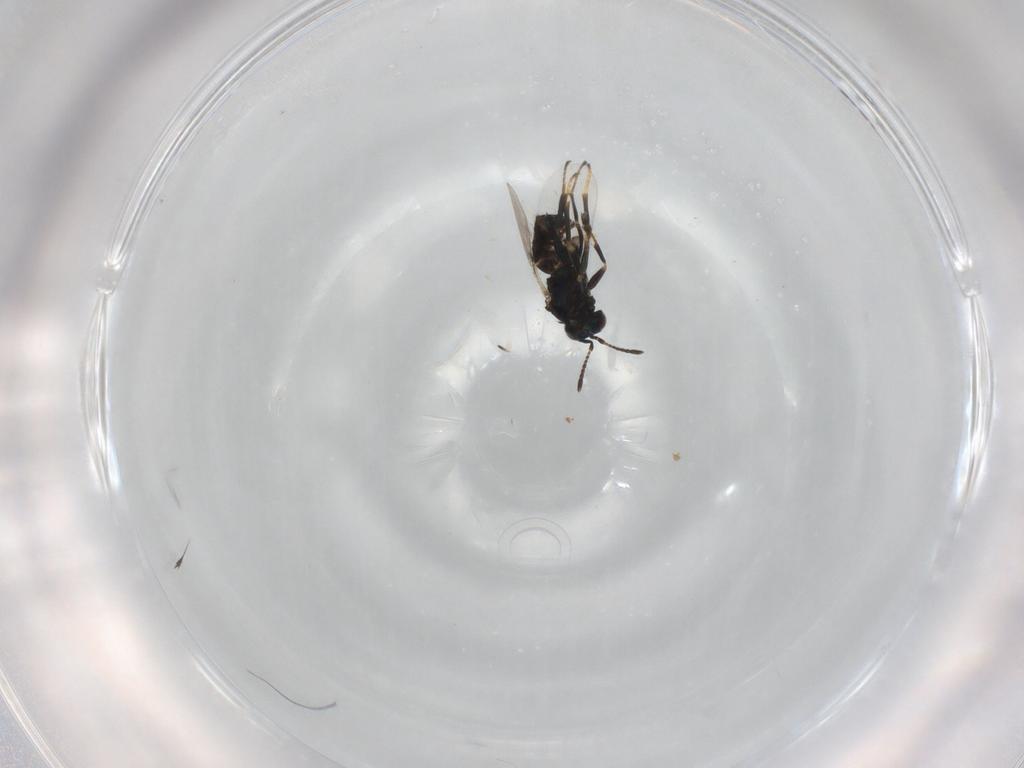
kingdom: Animalia
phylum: Arthropoda
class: Insecta
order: Hymenoptera
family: Encyrtidae
